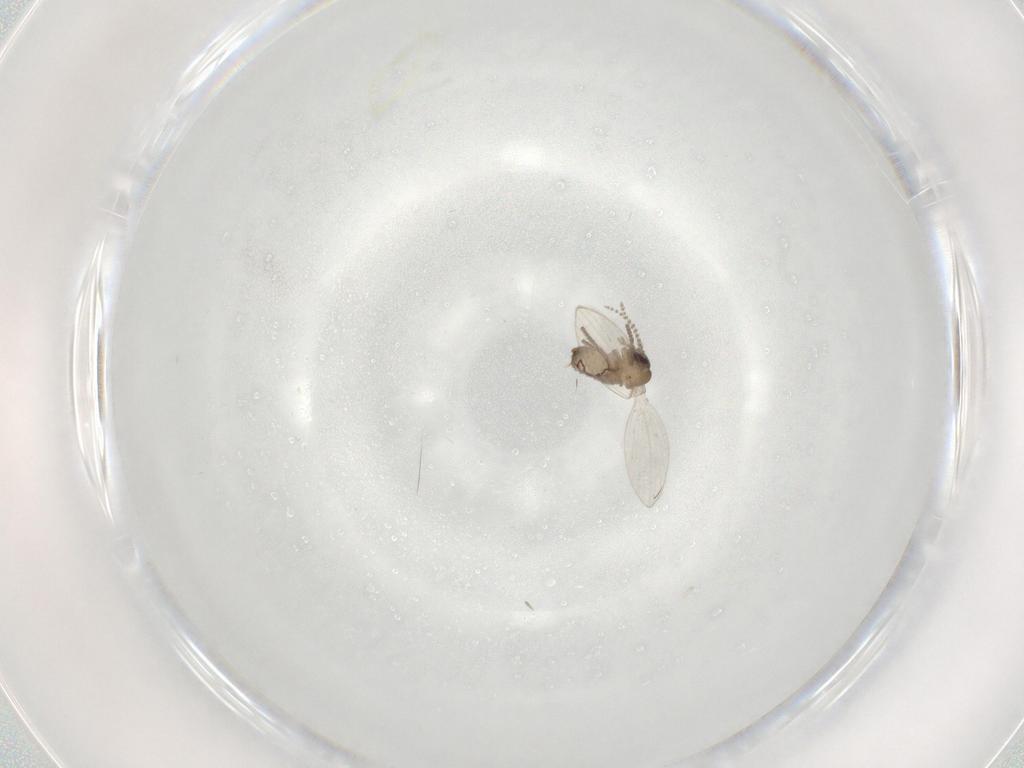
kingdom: Animalia
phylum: Arthropoda
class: Insecta
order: Diptera
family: Psychodidae
